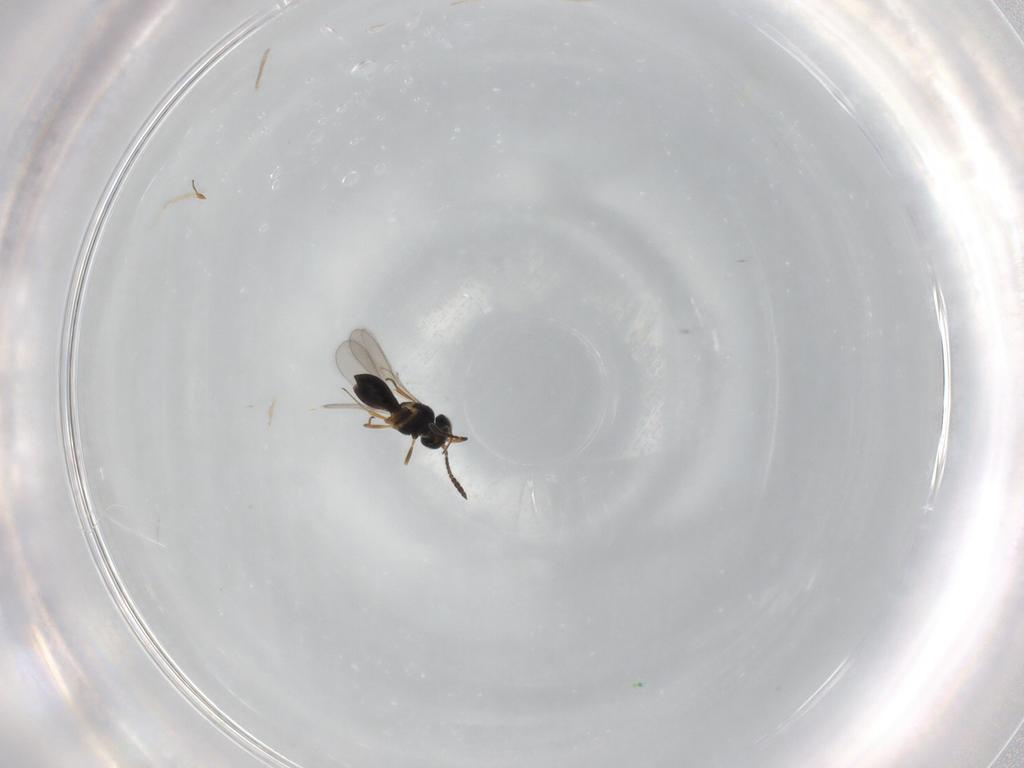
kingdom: Animalia
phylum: Arthropoda
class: Insecta
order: Hymenoptera
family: Scelionidae
